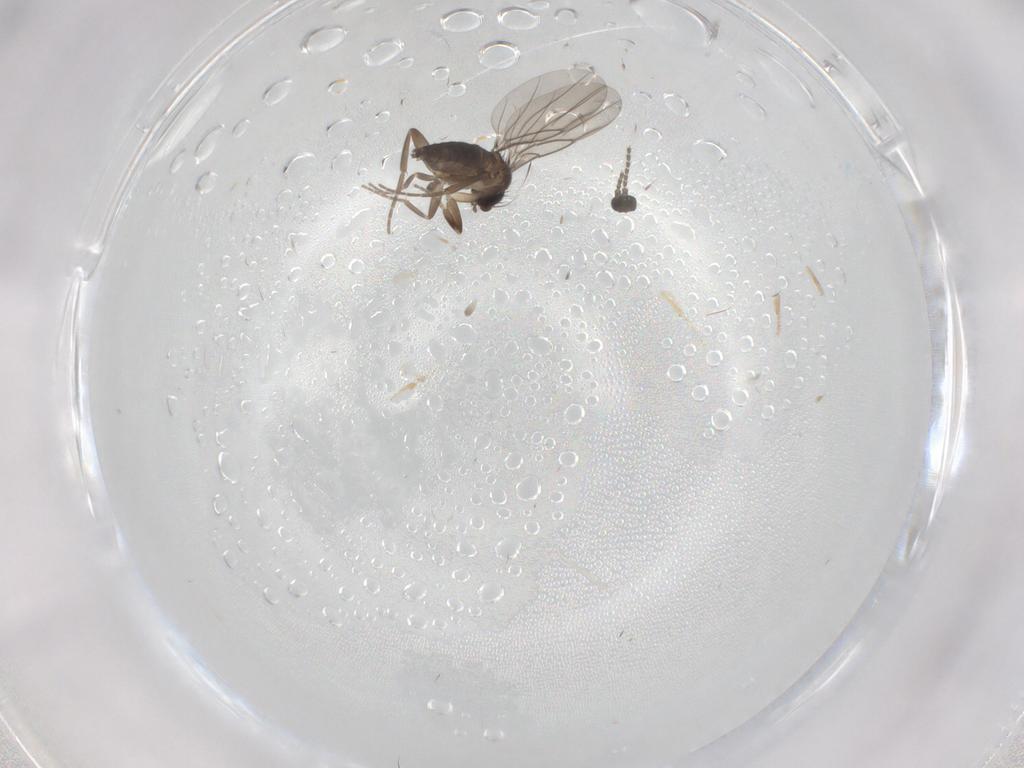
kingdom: Animalia
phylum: Arthropoda
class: Insecta
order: Diptera
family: Sciaridae
